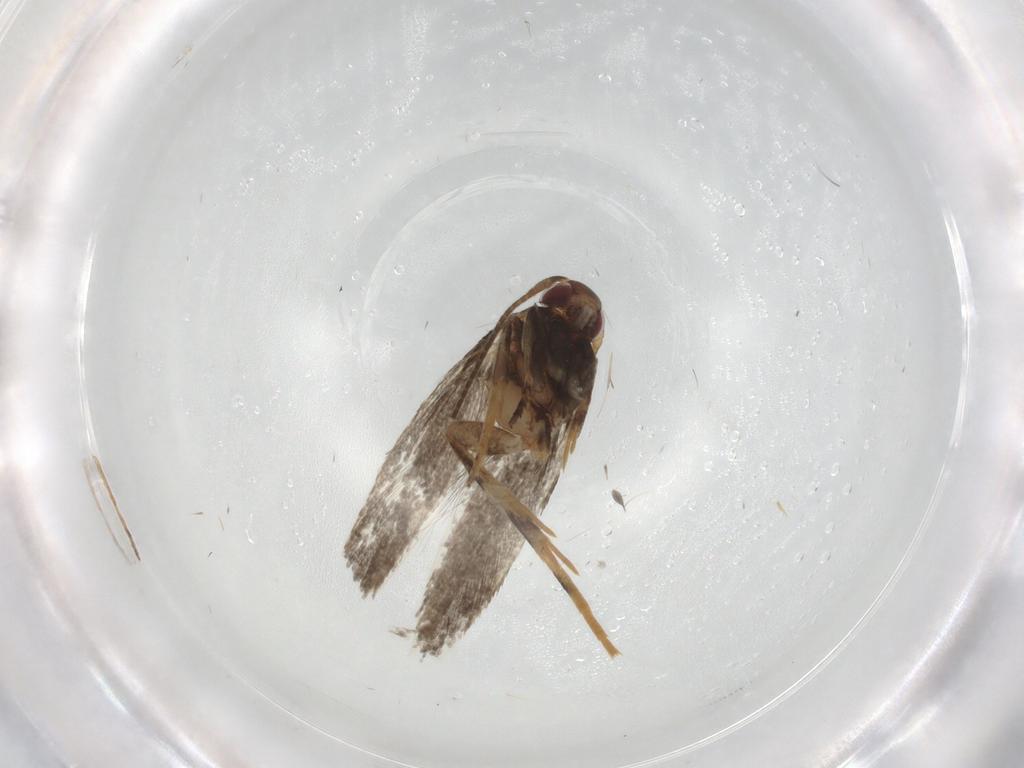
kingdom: Animalia
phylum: Arthropoda
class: Insecta
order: Lepidoptera
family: Cosmopterigidae
